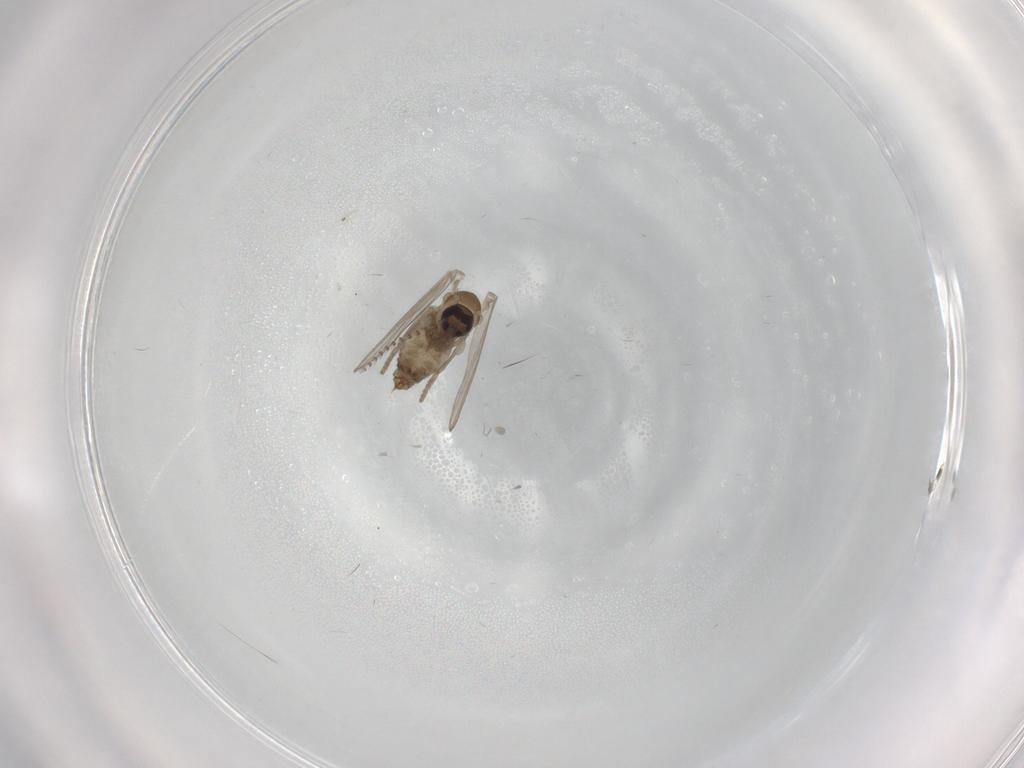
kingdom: Animalia
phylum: Arthropoda
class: Insecta
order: Diptera
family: Psychodidae
